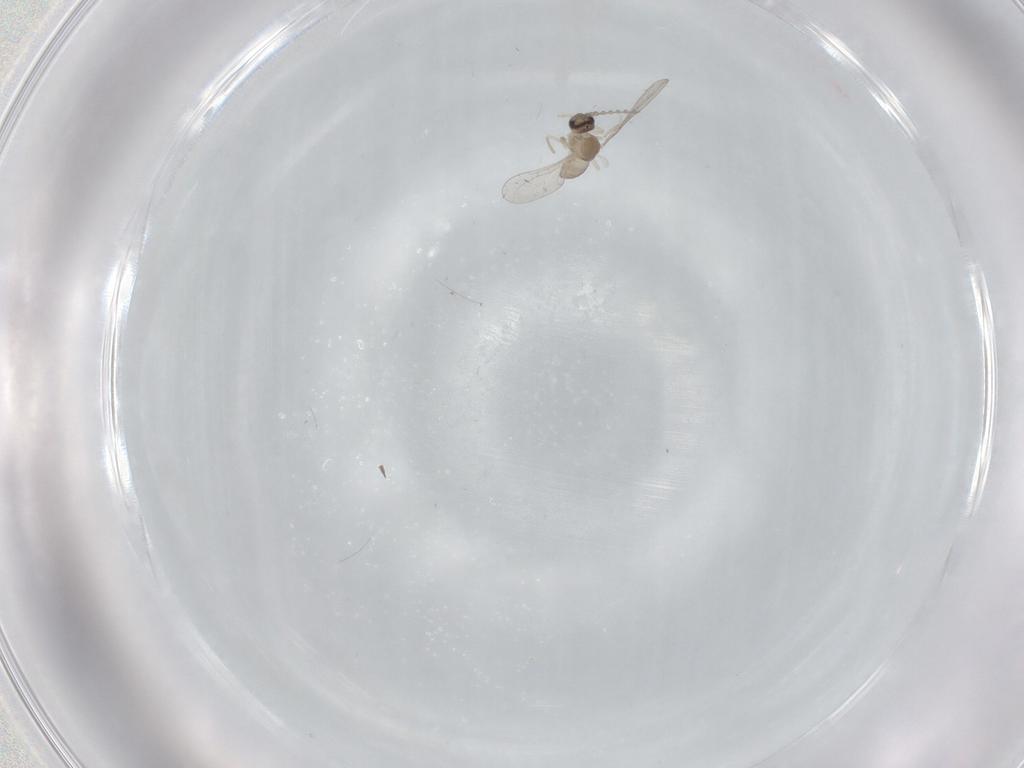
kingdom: Animalia
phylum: Arthropoda
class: Insecta
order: Diptera
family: Cecidomyiidae
